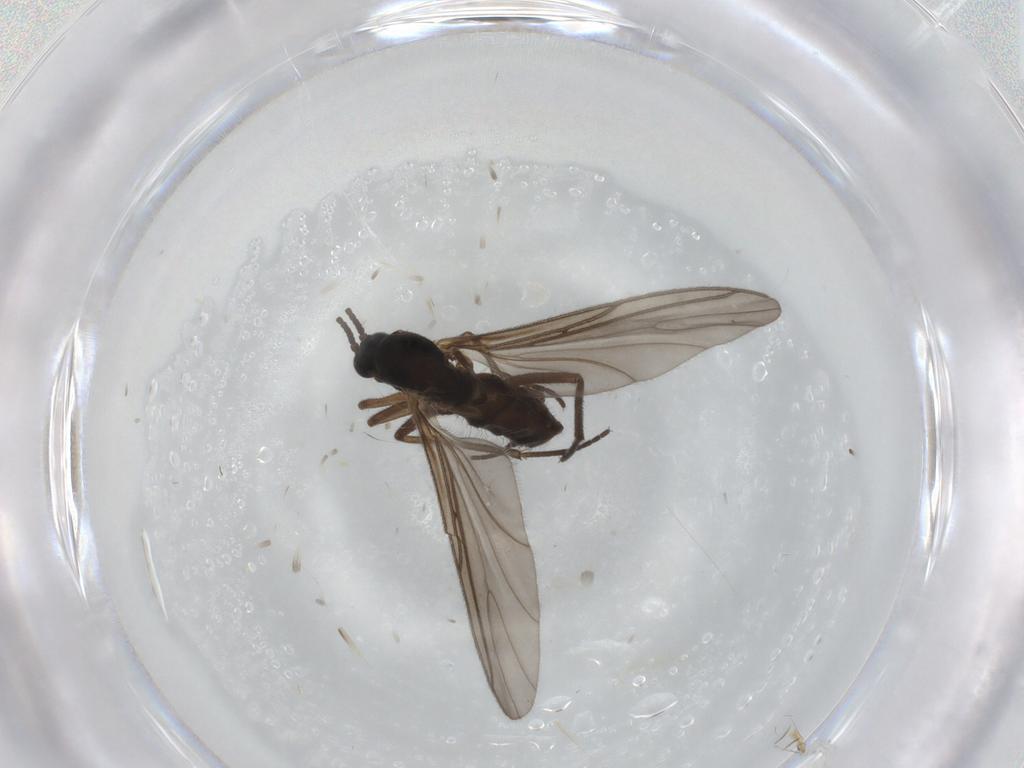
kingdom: Animalia
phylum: Arthropoda
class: Insecta
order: Diptera
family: Sciaridae
